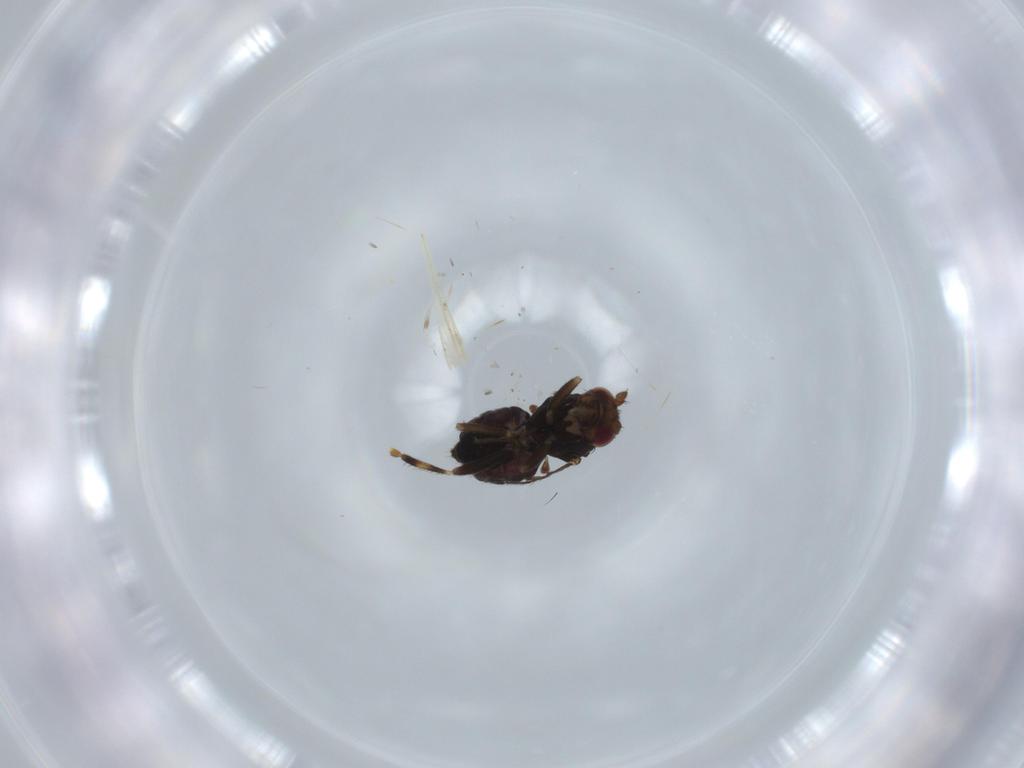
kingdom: Animalia
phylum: Arthropoda
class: Insecta
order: Diptera
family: Sphaeroceridae
